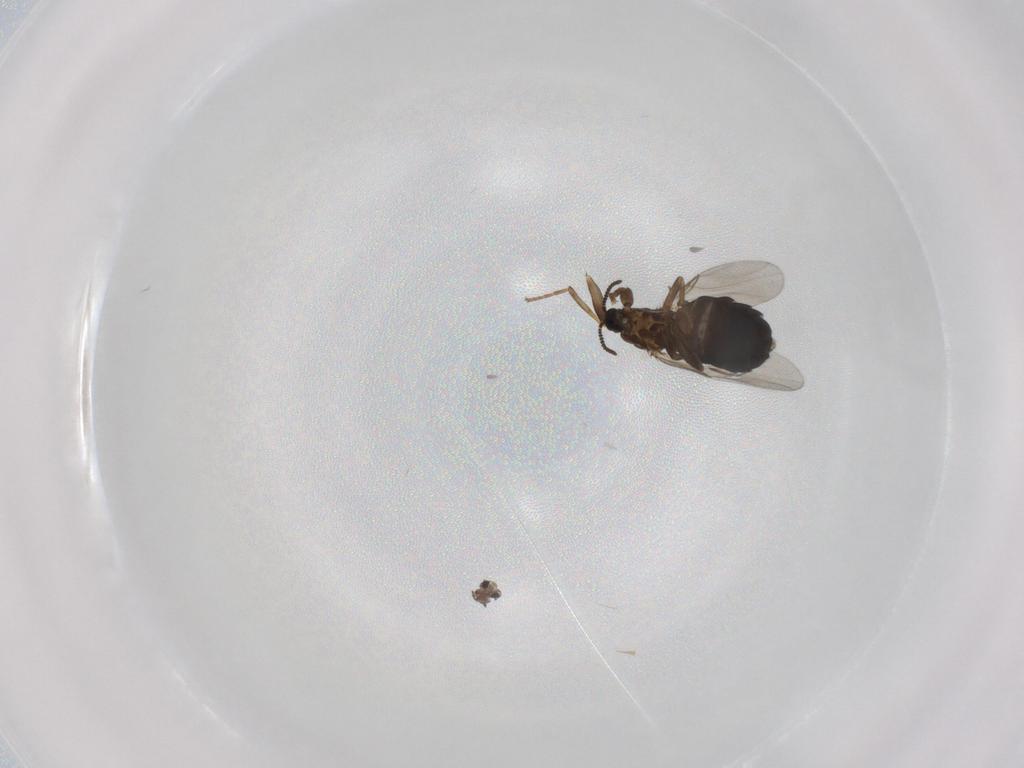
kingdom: Animalia
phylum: Arthropoda
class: Insecta
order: Diptera
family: Scatopsidae
